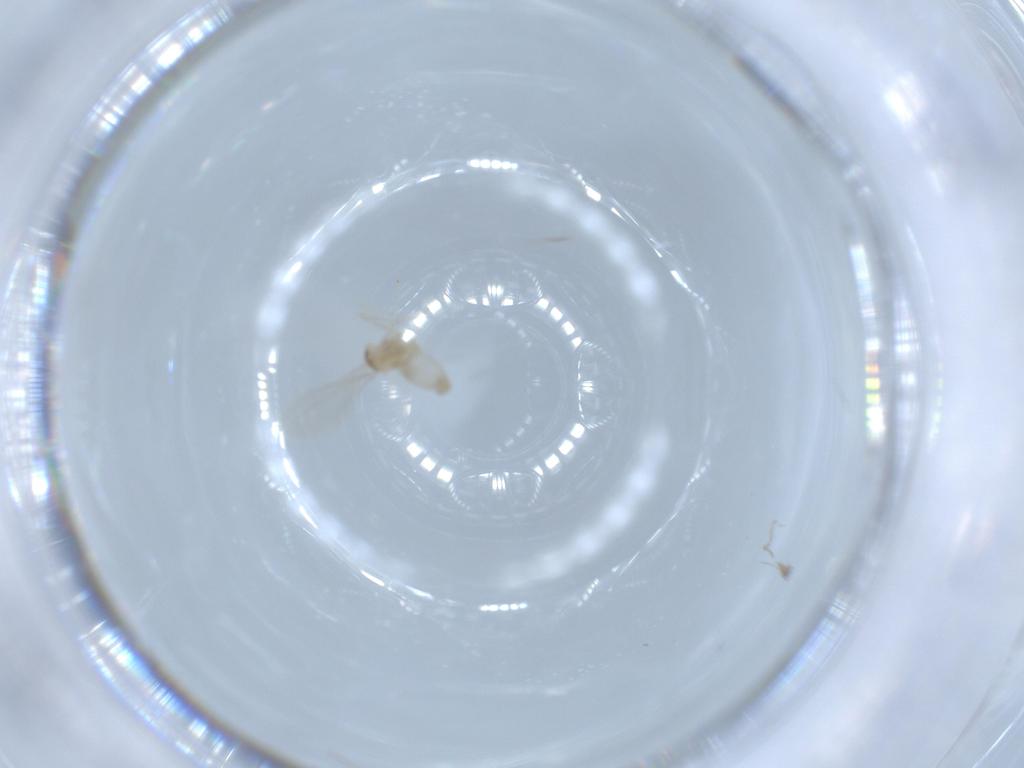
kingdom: Animalia
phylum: Arthropoda
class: Insecta
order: Diptera
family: Cecidomyiidae
